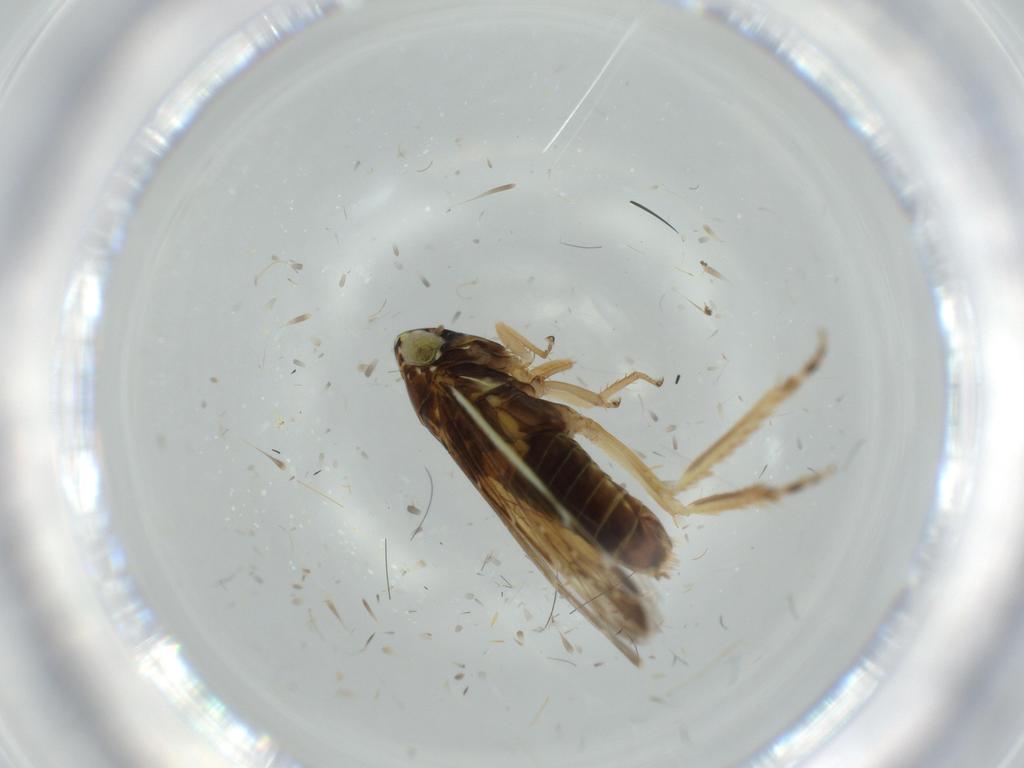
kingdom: Animalia
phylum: Arthropoda
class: Insecta
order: Hemiptera
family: Cicadellidae
